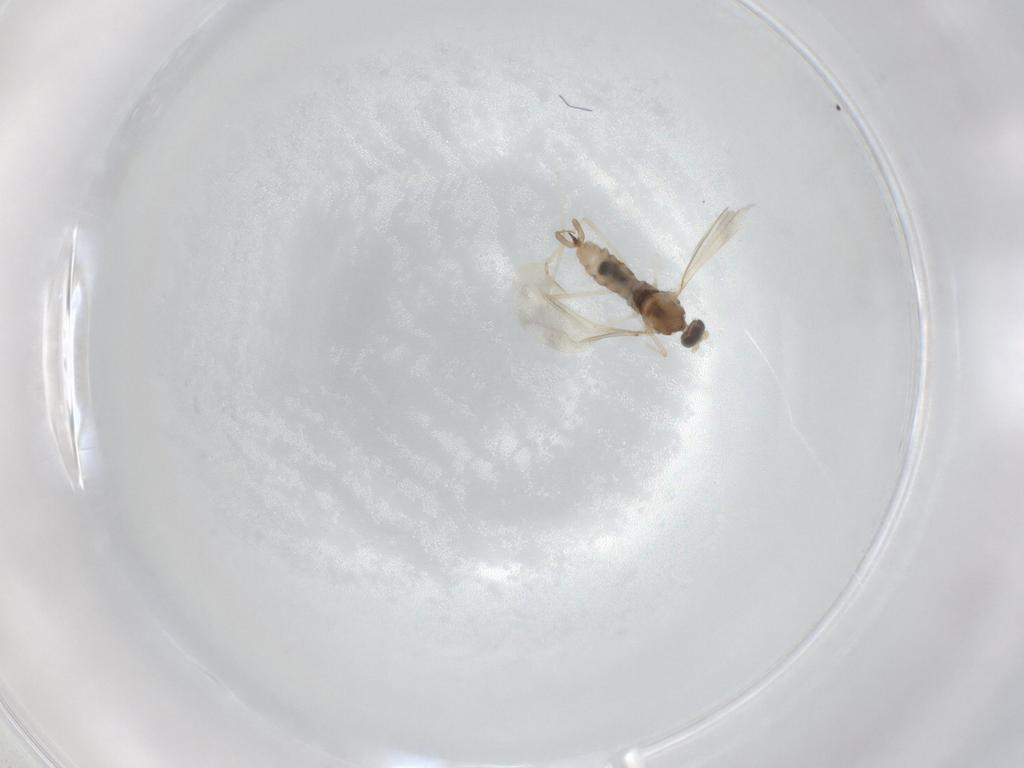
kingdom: Animalia
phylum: Arthropoda
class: Insecta
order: Diptera
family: Cecidomyiidae
